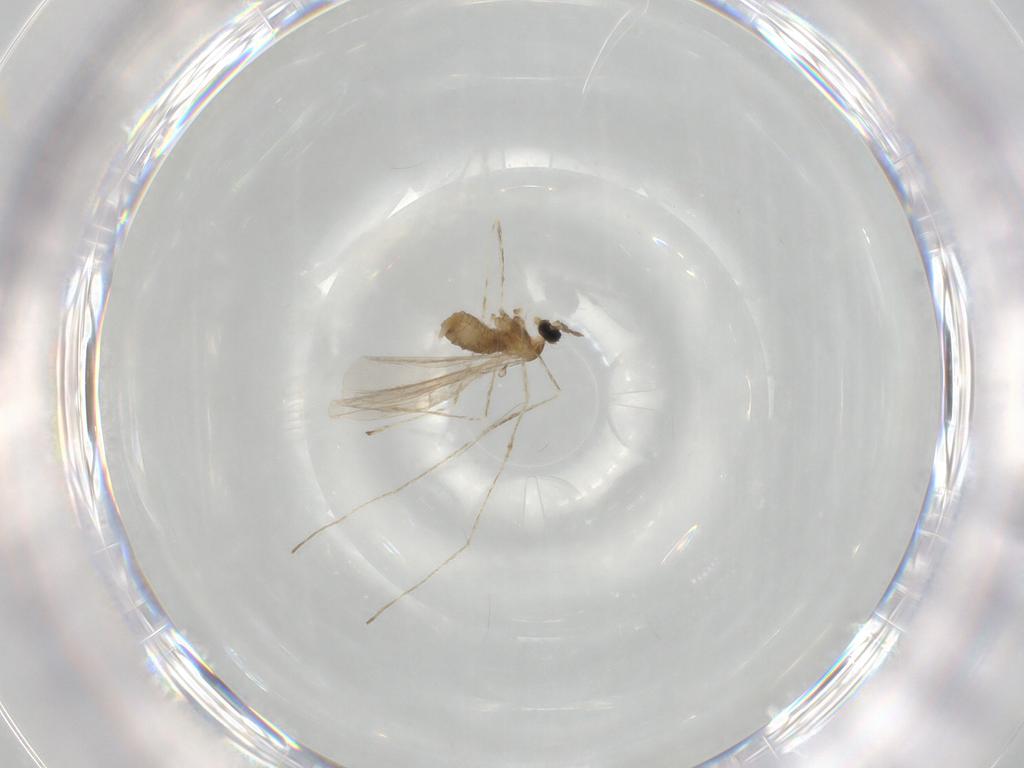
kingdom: Animalia
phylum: Arthropoda
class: Insecta
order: Diptera
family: Cecidomyiidae
